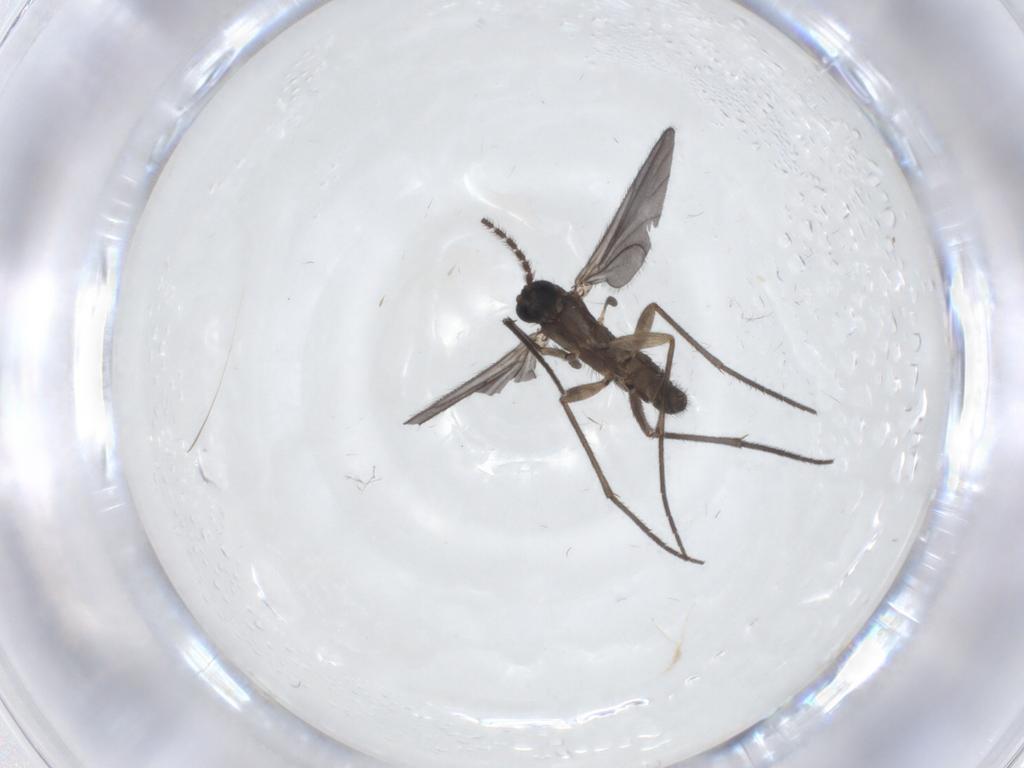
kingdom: Animalia
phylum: Arthropoda
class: Insecta
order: Diptera
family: Sciaridae
